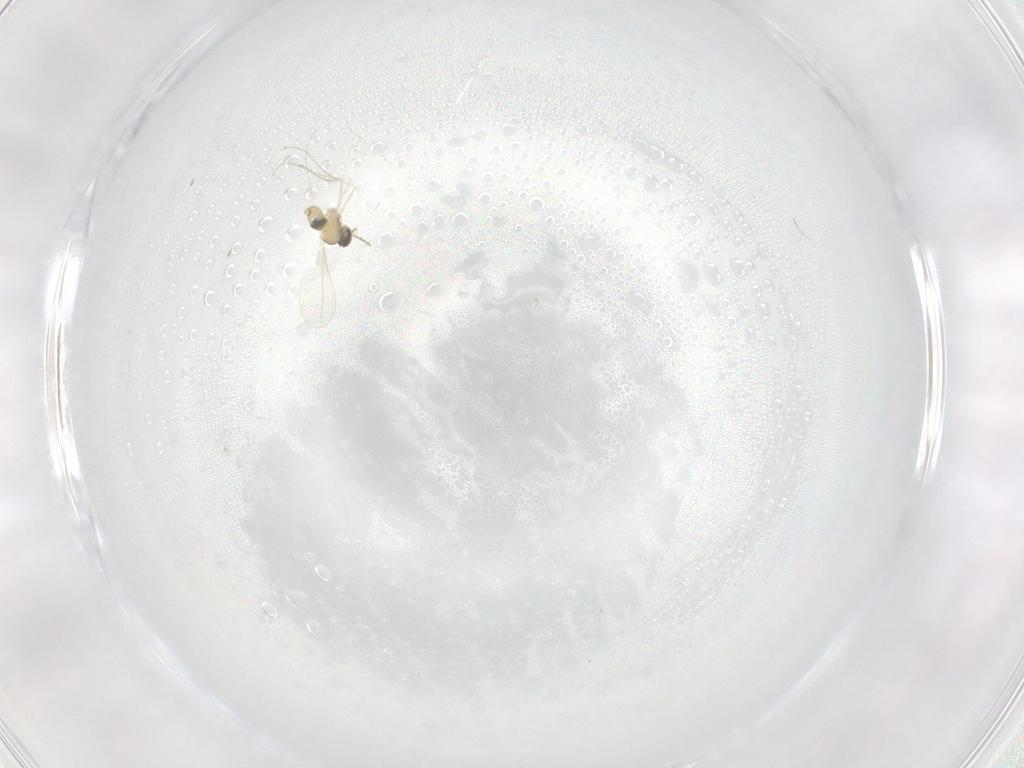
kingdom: Animalia
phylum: Arthropoda
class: Insecta
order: Diptera
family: Cecidomyiidae
